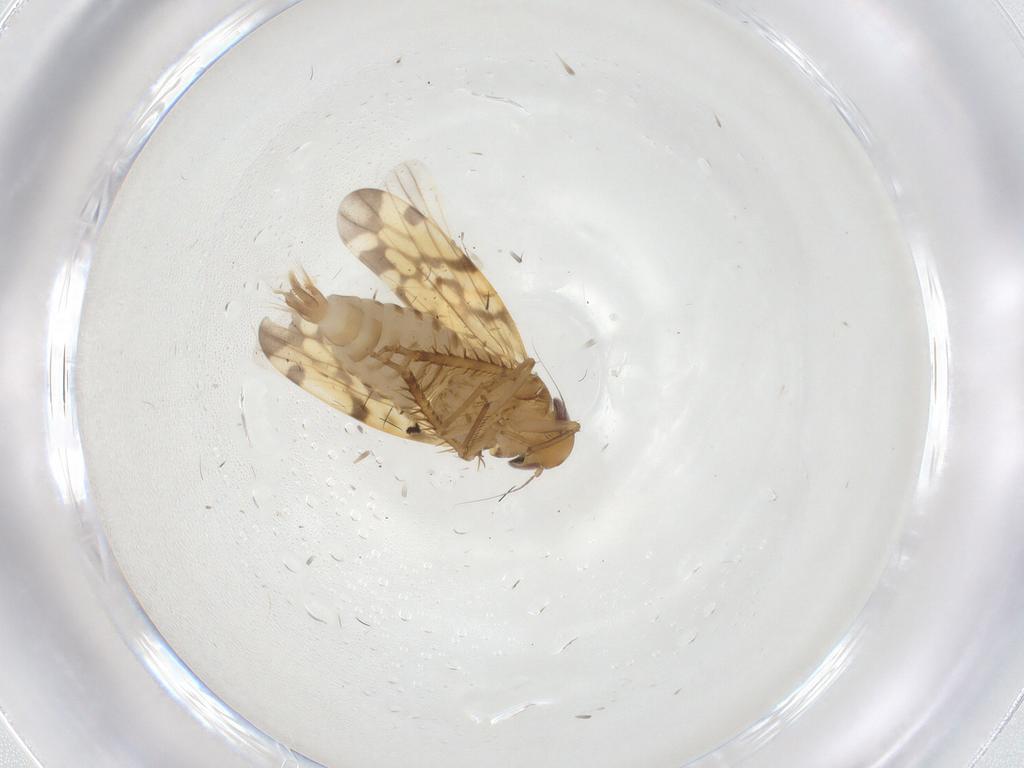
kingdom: Animalia
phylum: Arthropoda
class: Insecta
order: Hemiptera
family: Cicadellidae
